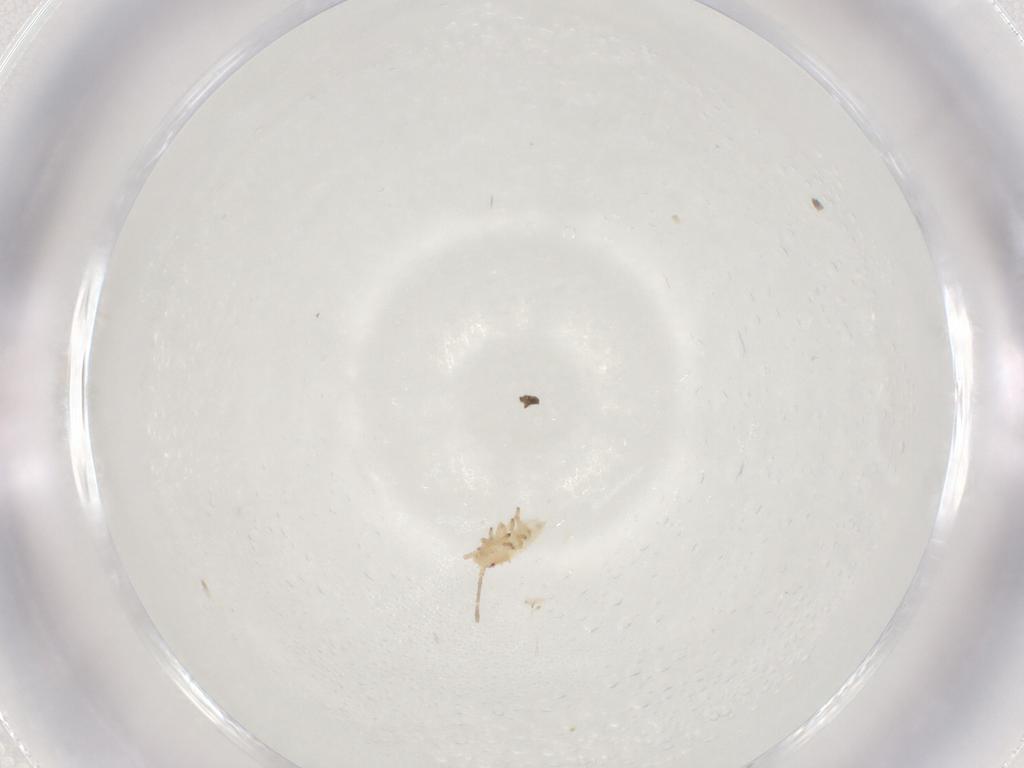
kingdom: Animalia
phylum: Arthropoda
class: Insecta
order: Hemiptera
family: Tingidae
